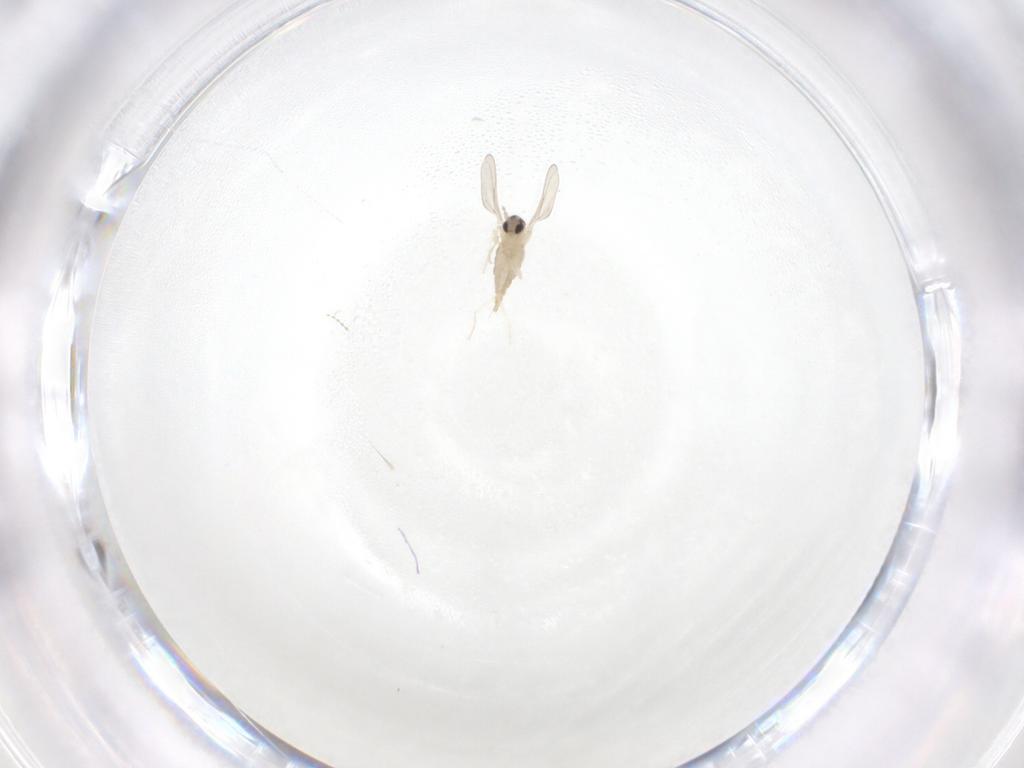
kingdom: Animalia
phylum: Arthropoda
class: Insecta
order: Diptera
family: Cecidomyiidae
